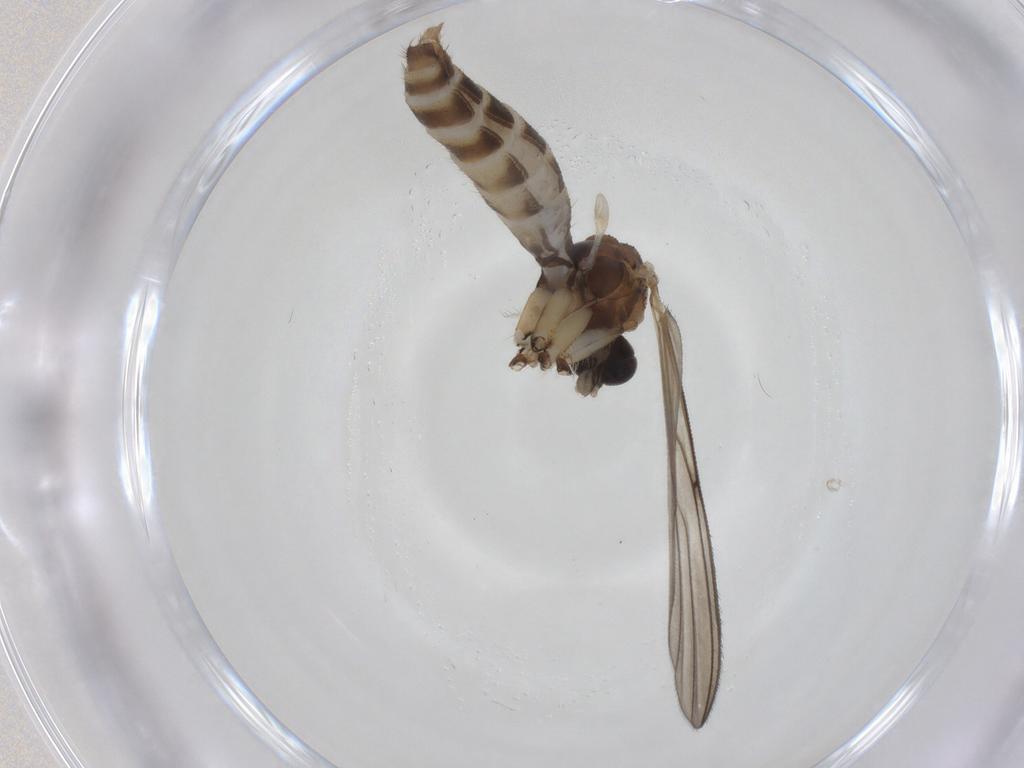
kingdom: Animalia
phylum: Arthropoda
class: Insecta
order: Diptera
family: Mycetophilidae
